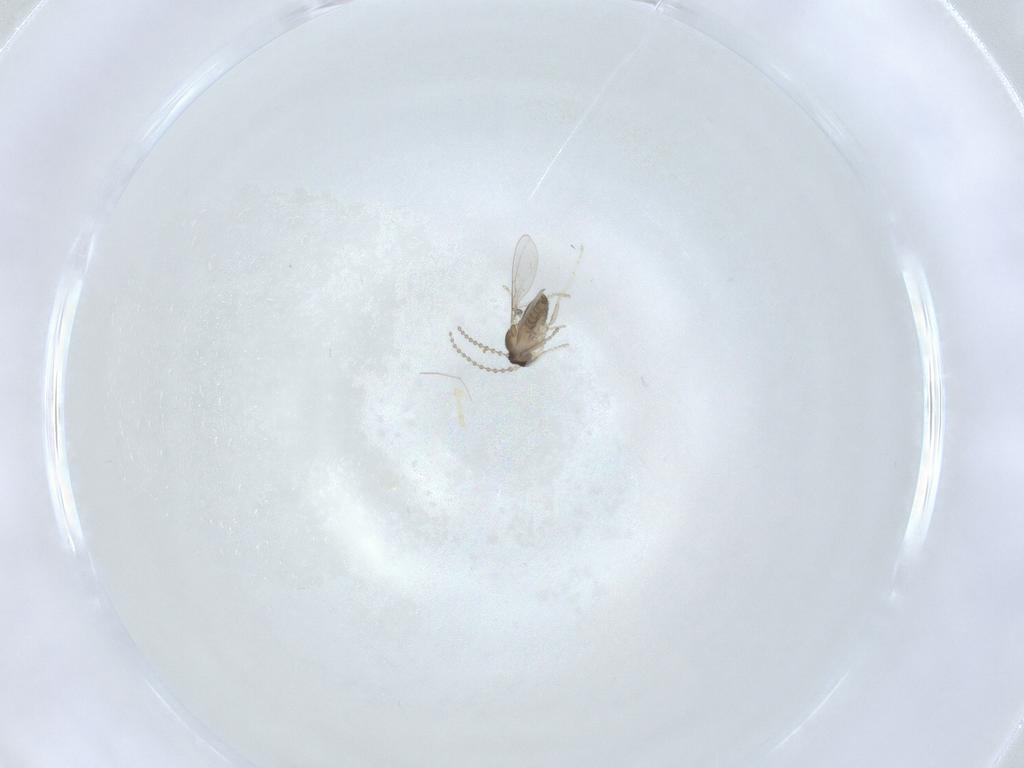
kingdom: Animalia
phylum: Arthropoda
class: Insecta
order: Diptera
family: Cecidomyiidae
